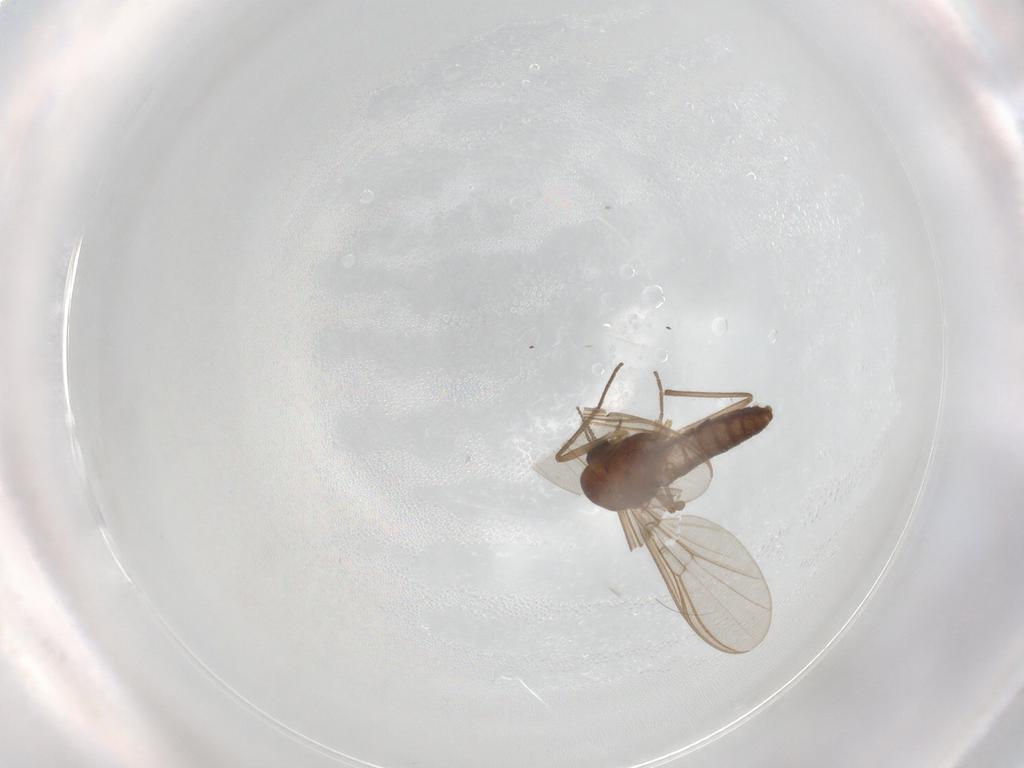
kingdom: Animalia
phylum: Arthropoda
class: Insecta
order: Diptera
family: Chironomidae
